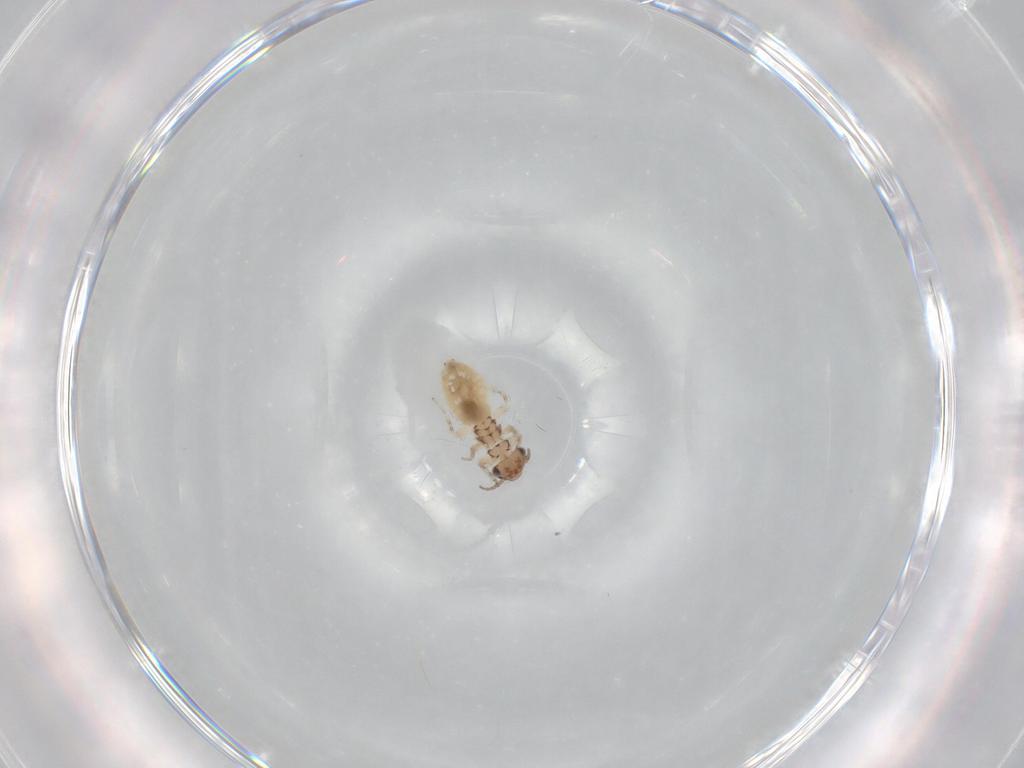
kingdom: Animalia
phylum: Arthropoda
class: Insecta
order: Psocodea
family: Lepidopsocidae
